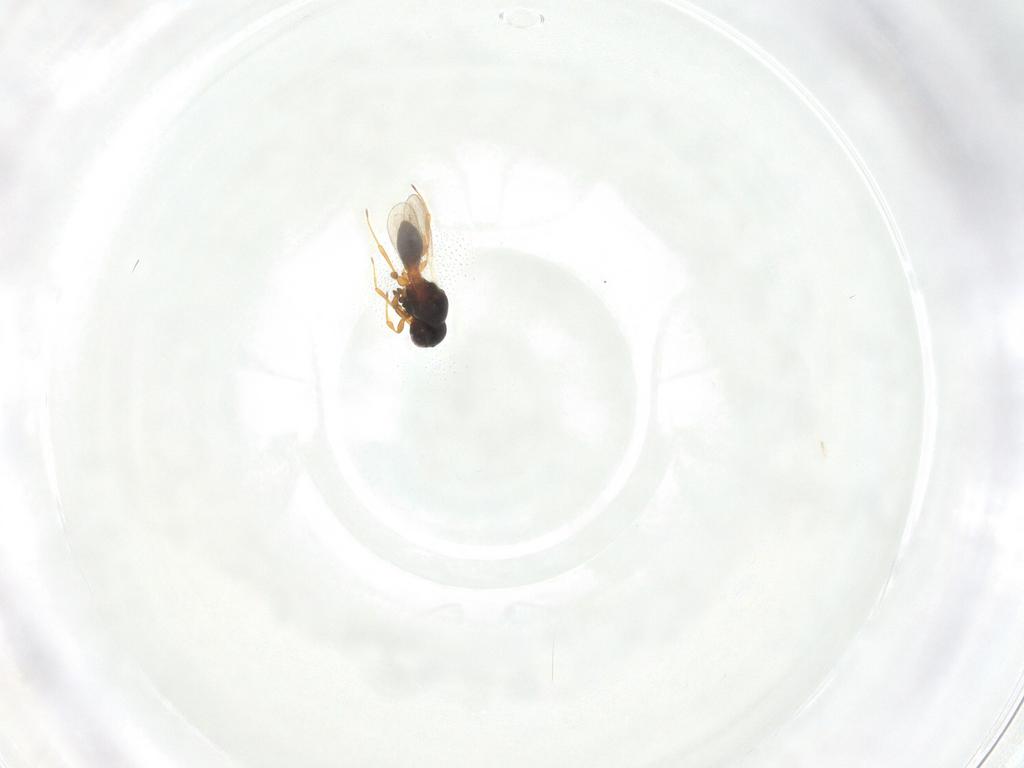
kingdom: Animalia
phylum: Arthropoda
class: Insecta
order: Hymenoptera
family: Platygastridae
